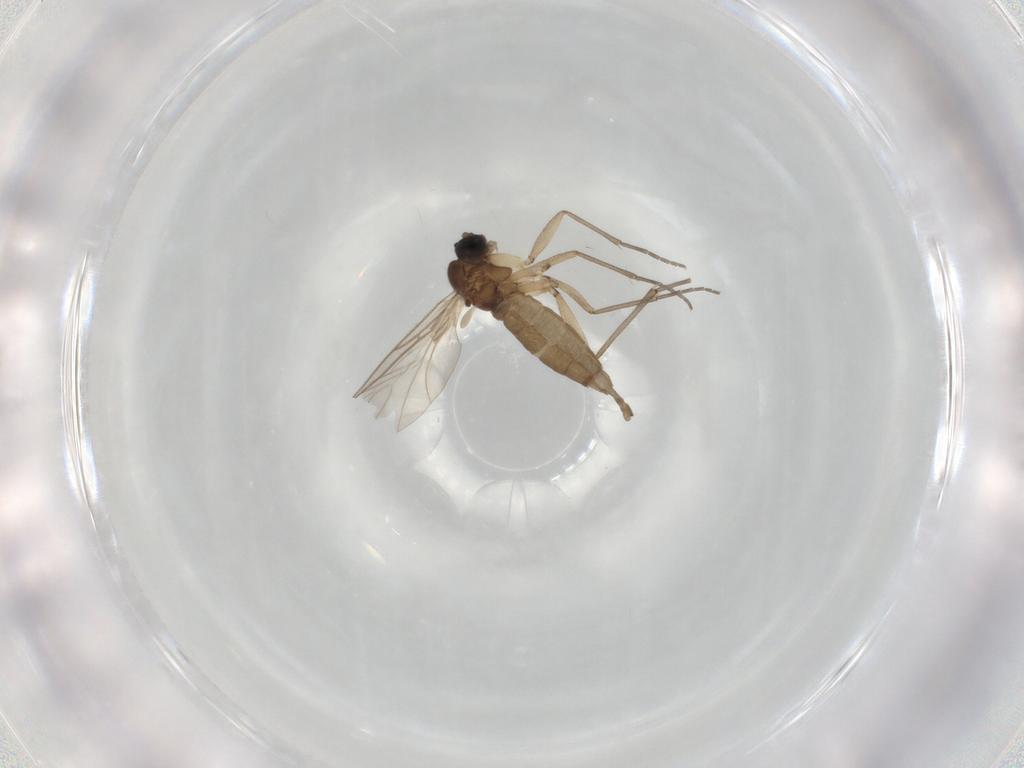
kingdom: Animalia
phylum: Arthropoda
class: Insecta
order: Diptera
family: Sciaridae
